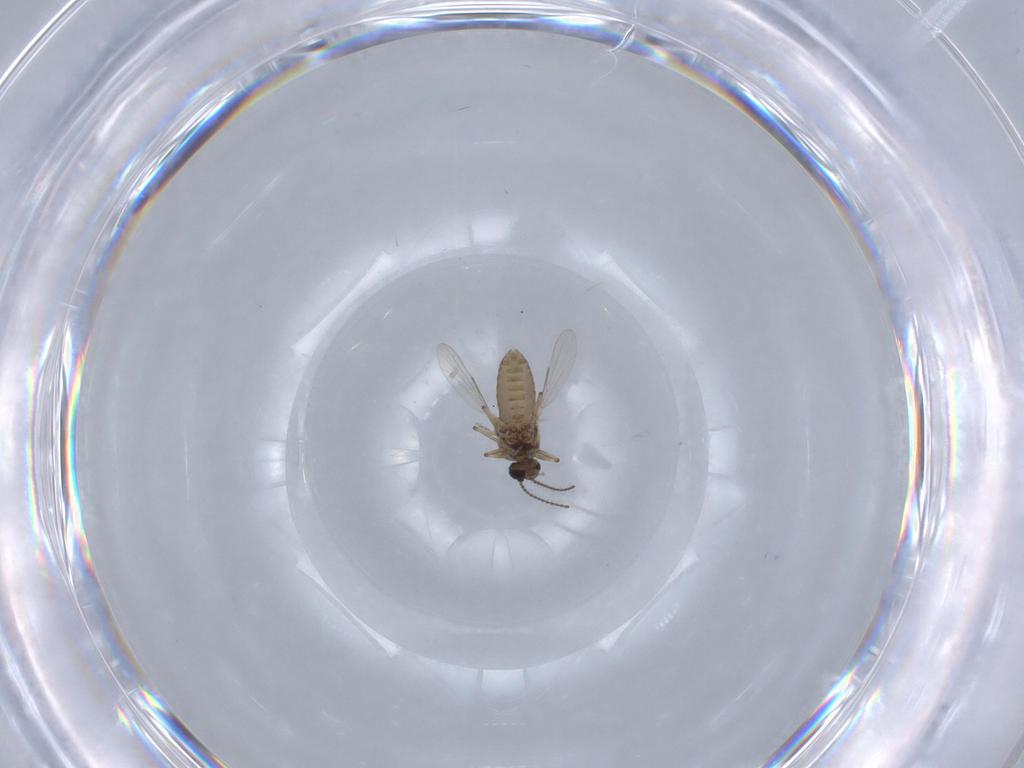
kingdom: Animalia
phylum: Arthropoda
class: Insecta
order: Diptera
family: Ceratopogonidae
